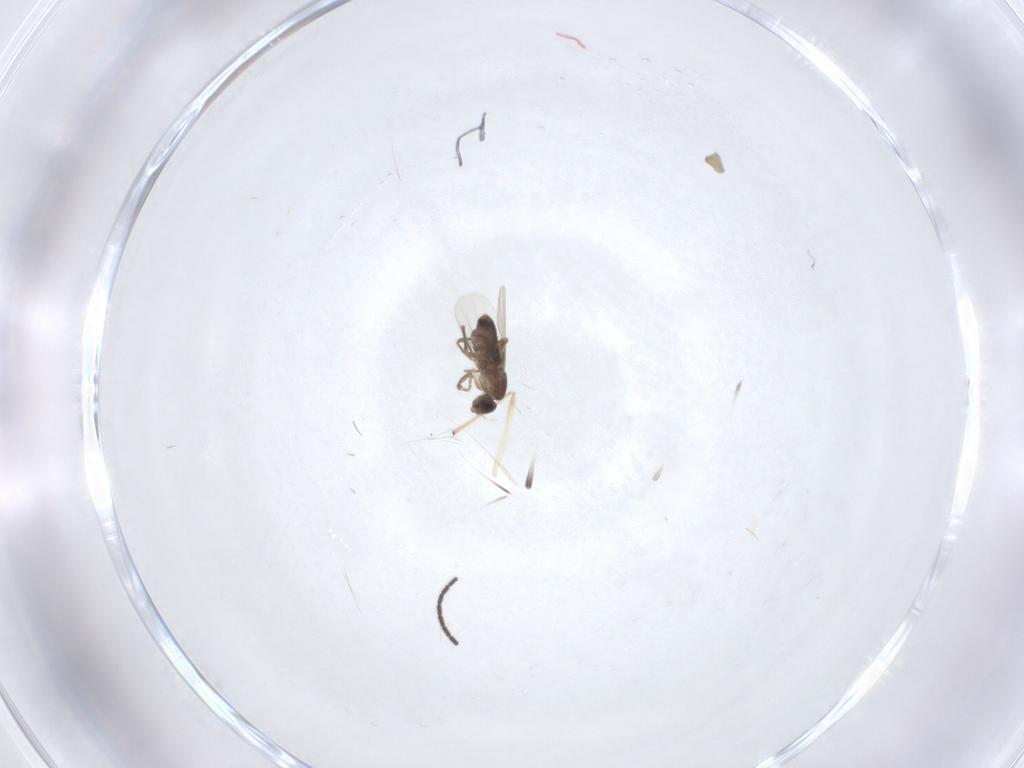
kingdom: Animalia
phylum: Arthropoda
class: Insecta
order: Diptera
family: Phoridae
